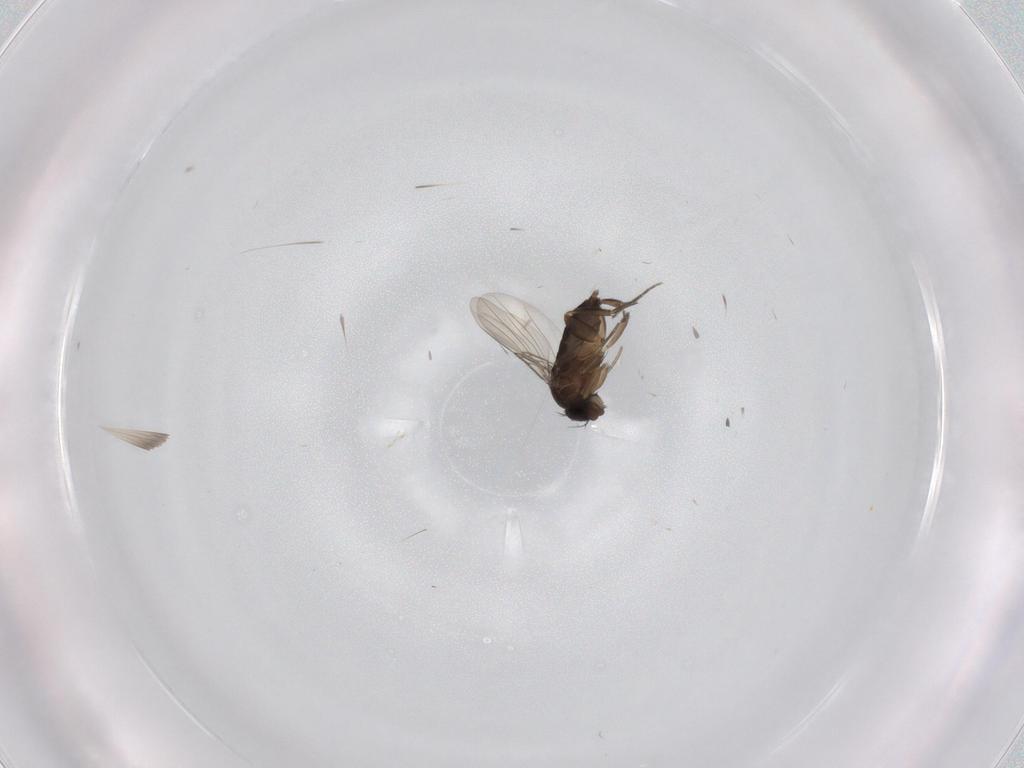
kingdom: Animalia
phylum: Arthropoda
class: Insecta
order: Diptera
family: Phoridae
